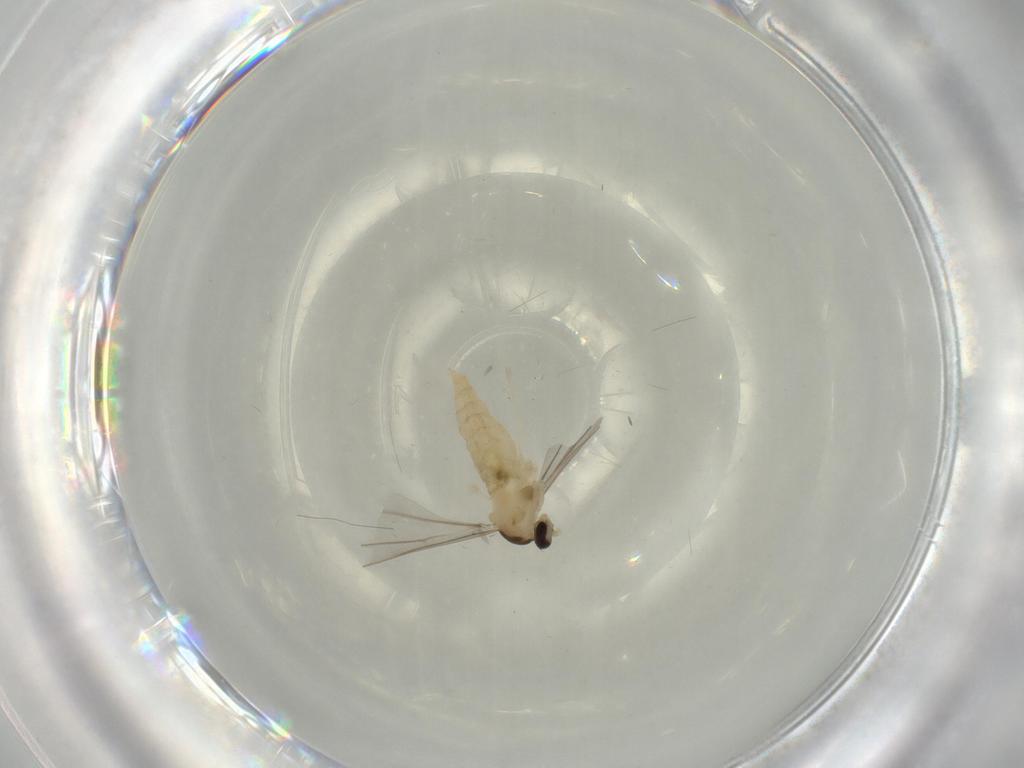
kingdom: Animalia
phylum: Arthropoda
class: Insecta
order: Diptera
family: Cecidomyiidae
